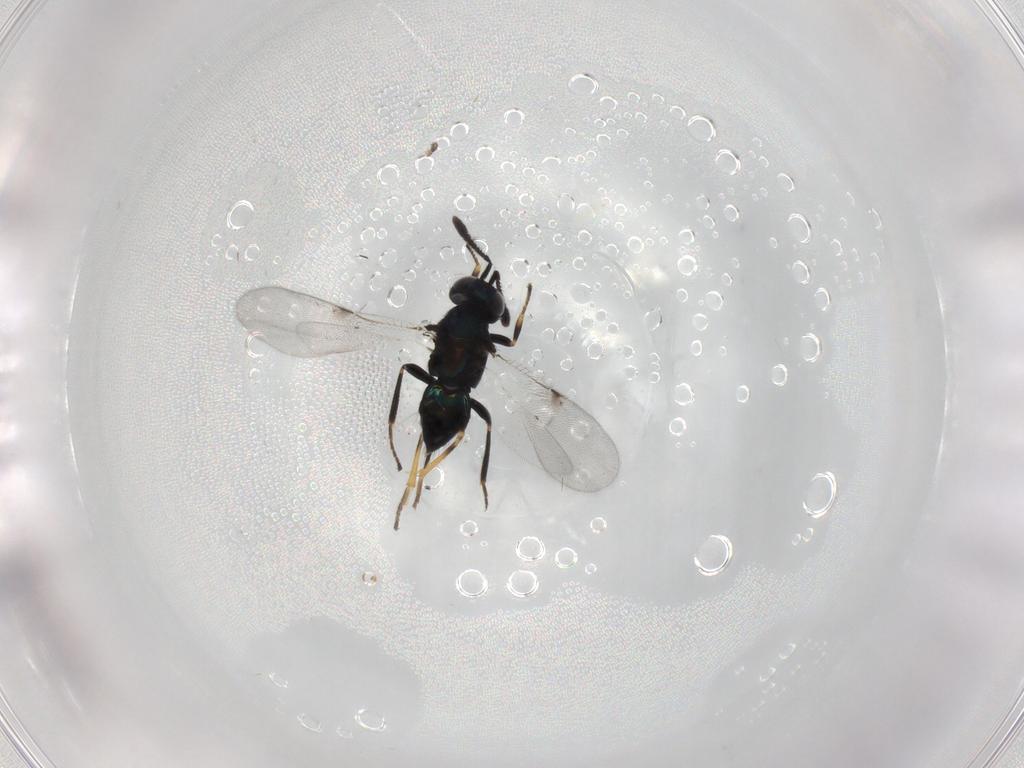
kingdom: Animalia
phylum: Arthropoda
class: Insecta
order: Hymenoptera
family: Encyrtidae
